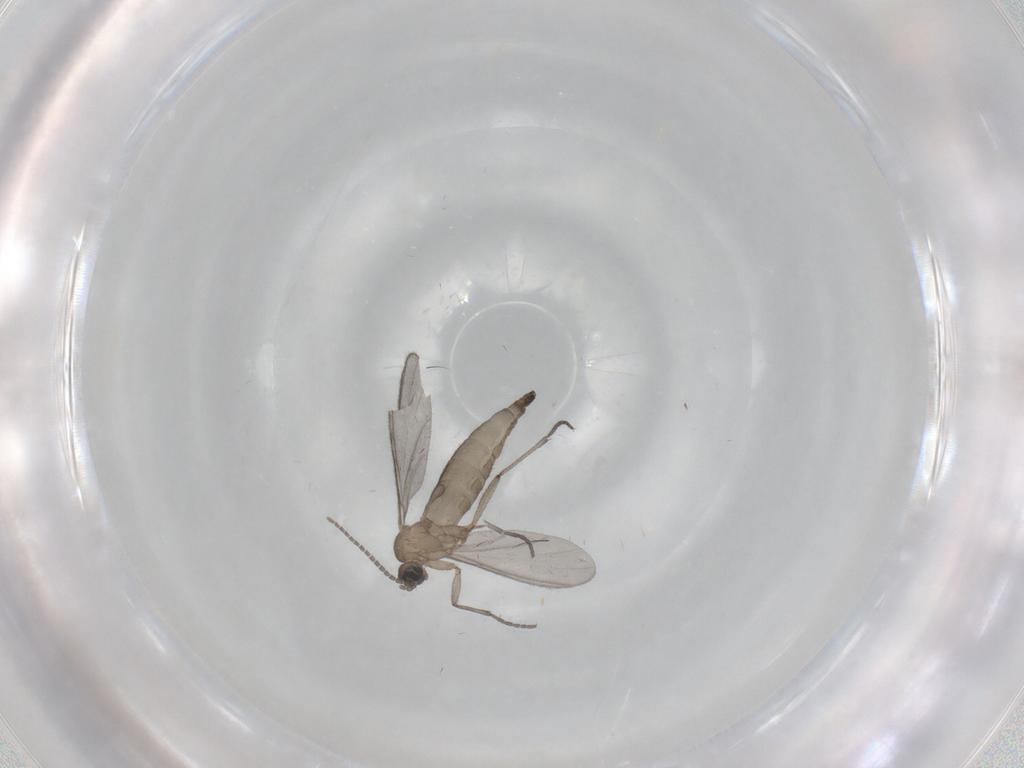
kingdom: Animalia
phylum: Arthropoda
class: Insecta
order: Diptera
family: Sciaridae
